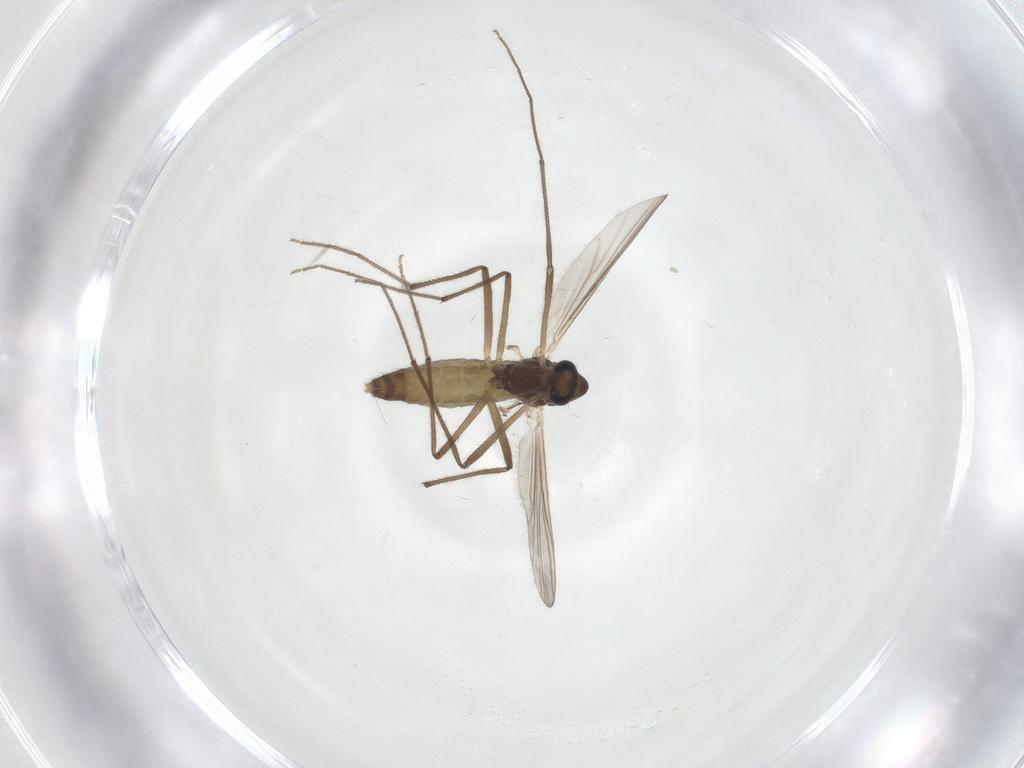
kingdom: Animalia
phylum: Arthropoda
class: Insecta
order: Diptera
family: Chironomidae
